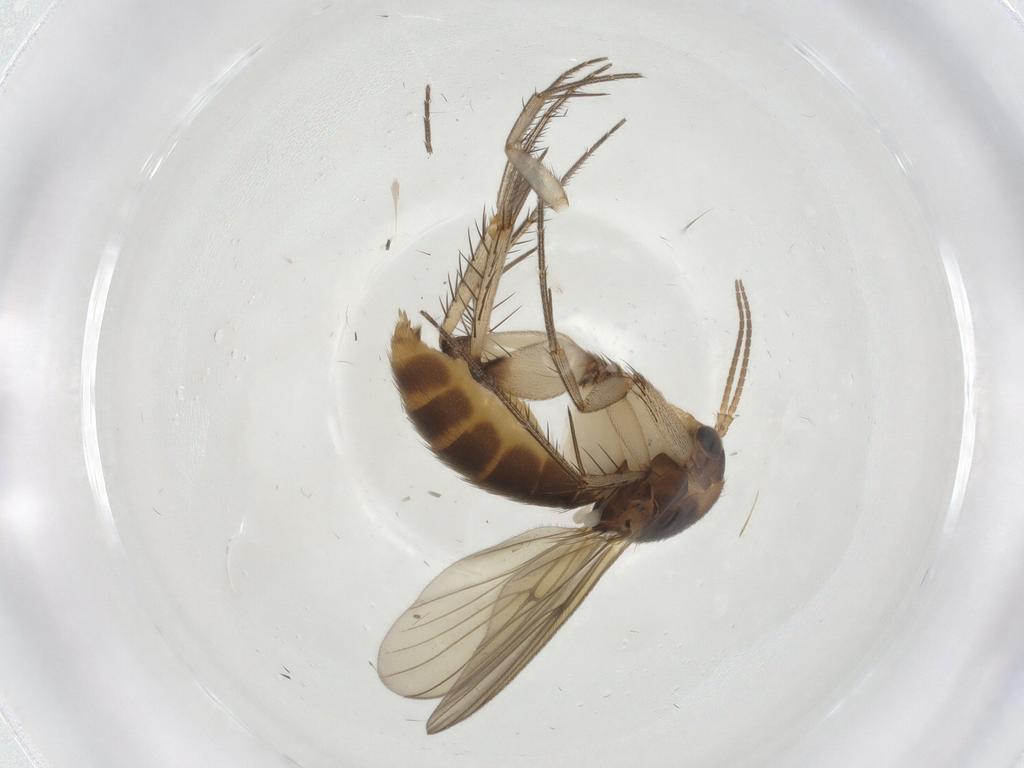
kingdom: Animalia
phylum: Arthropoda
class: Insecta
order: Diptera
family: Mycetophilidae
